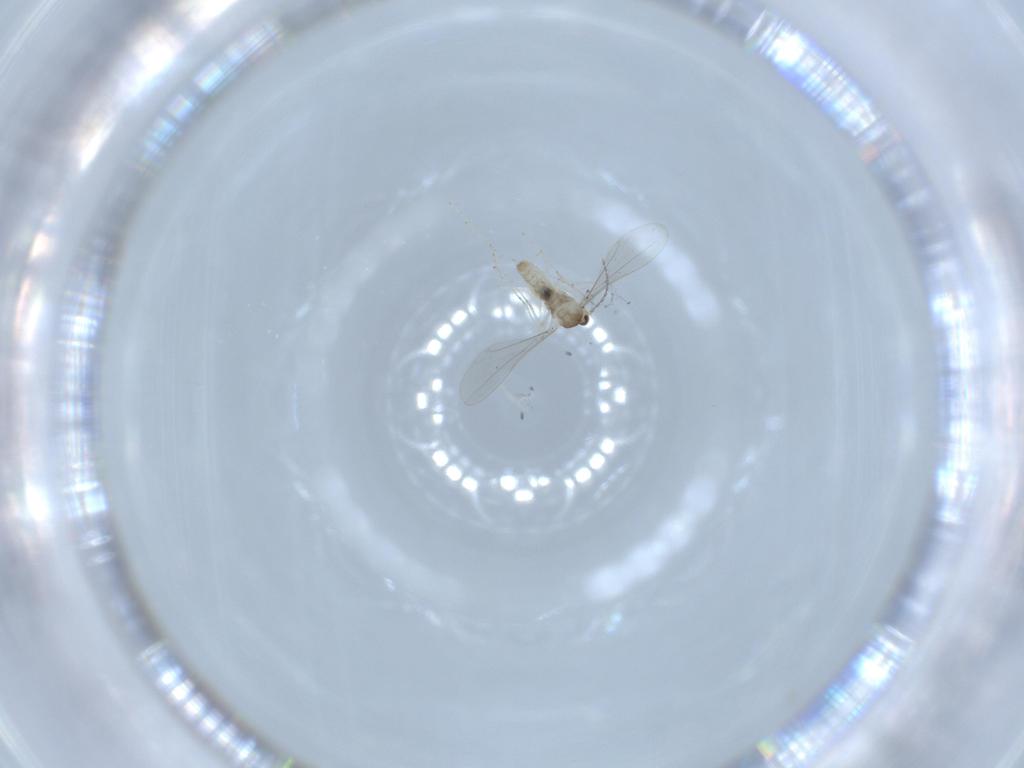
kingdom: Animalia
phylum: Arthropoda
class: Insecta
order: Diptera
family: Cecidomyiidae
